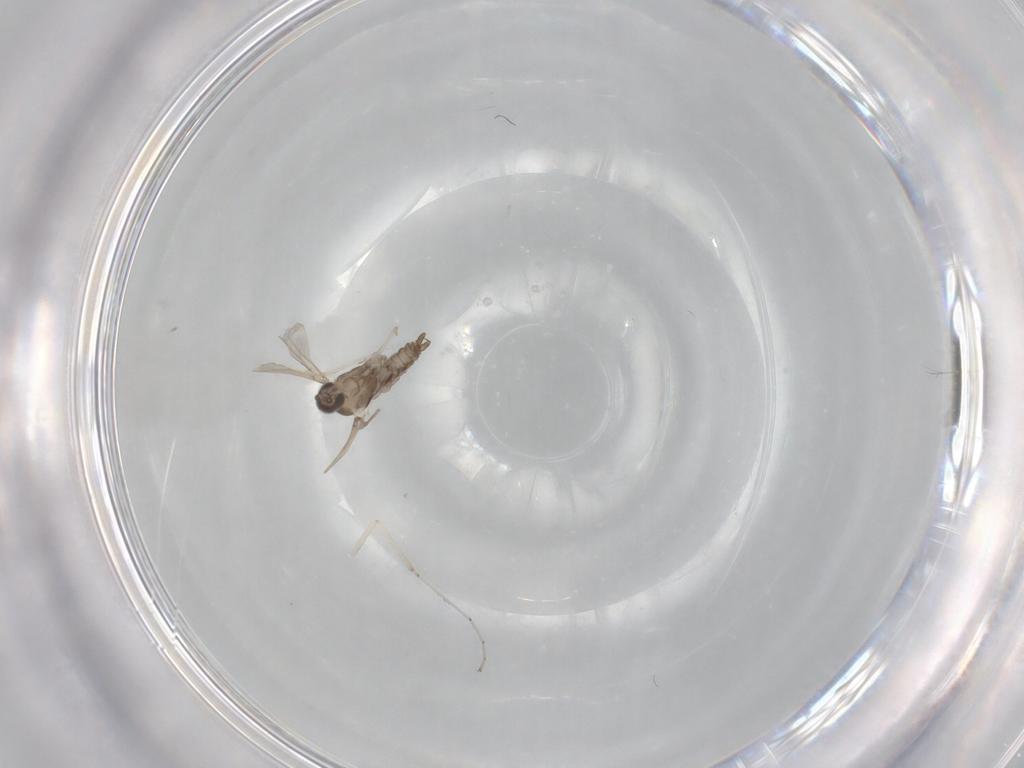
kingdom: Animalia
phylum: Arthropoda
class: Insecta
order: Diptera
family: Cecidomyiidae
